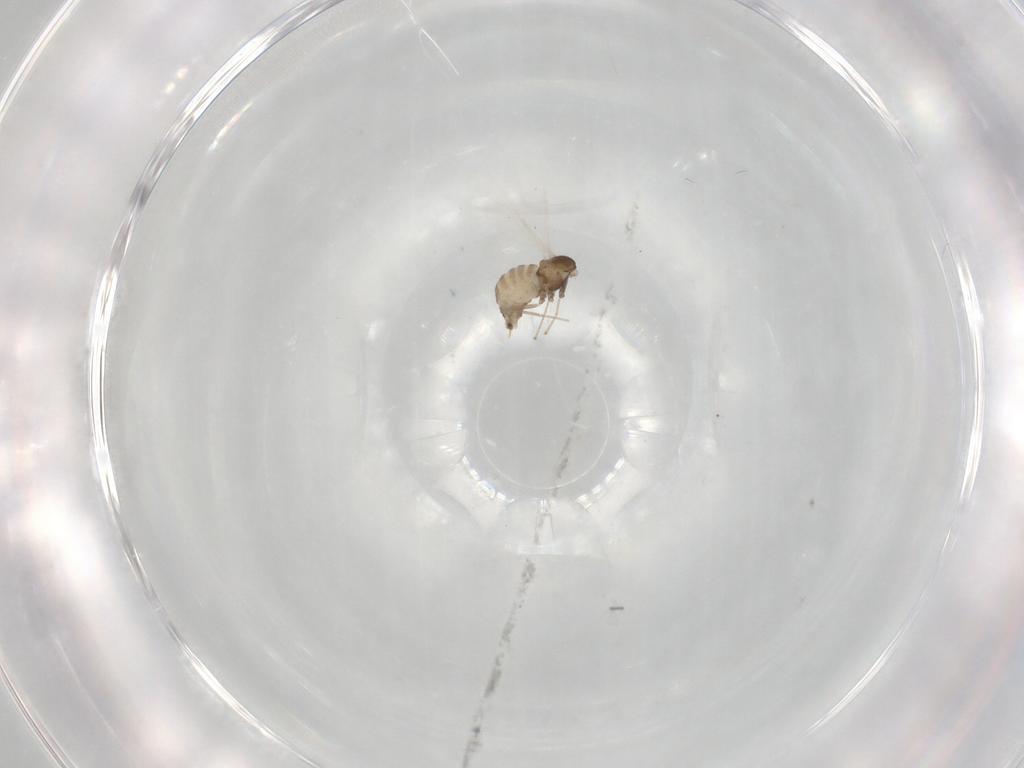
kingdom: Animalia
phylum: Arthropoda
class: Insecta
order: Diptera
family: Cecidomyiidae
